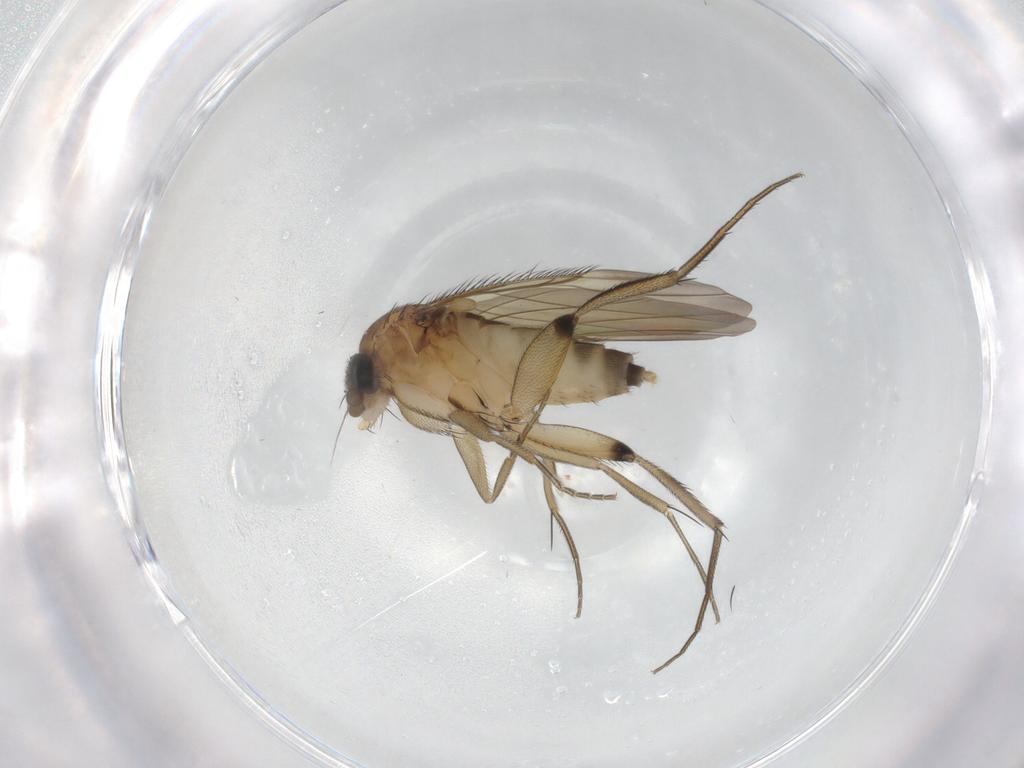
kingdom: Animalia
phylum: Arthropoda
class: Insecta
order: Diptera
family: Phoridae
